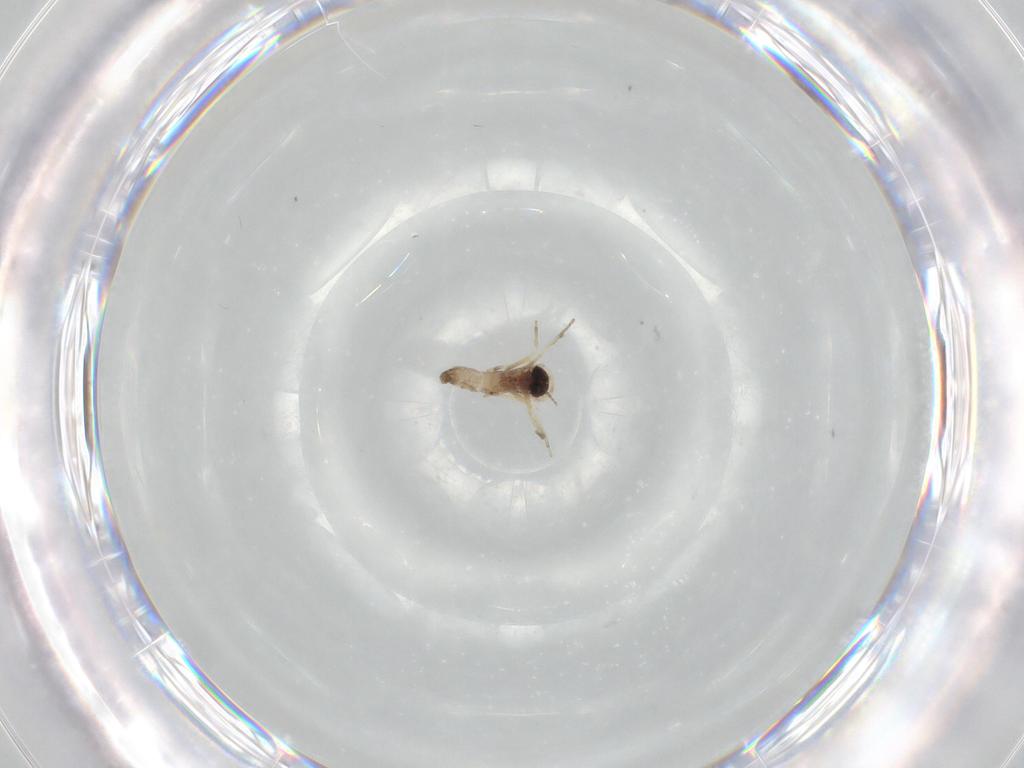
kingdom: Animalia
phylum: Arthropoda
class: Insecta
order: Diptera
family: Ceratopogonidae
